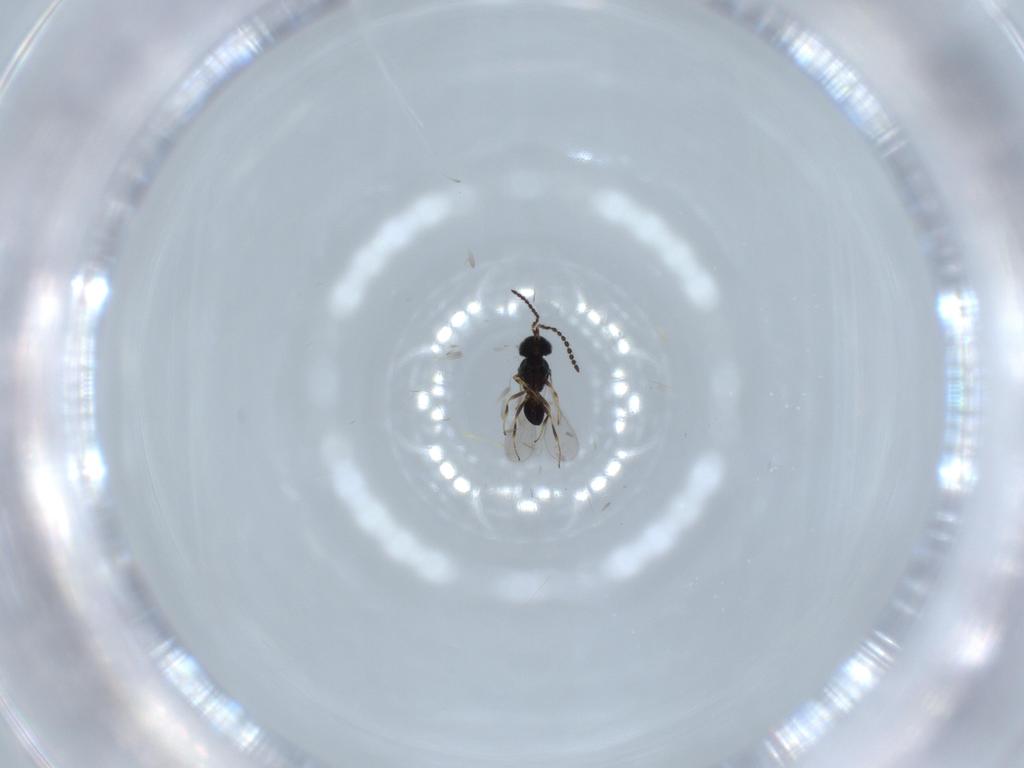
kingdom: Animalia
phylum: Arthropoda
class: Insecta
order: Hymenoptera
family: Scelionidae
